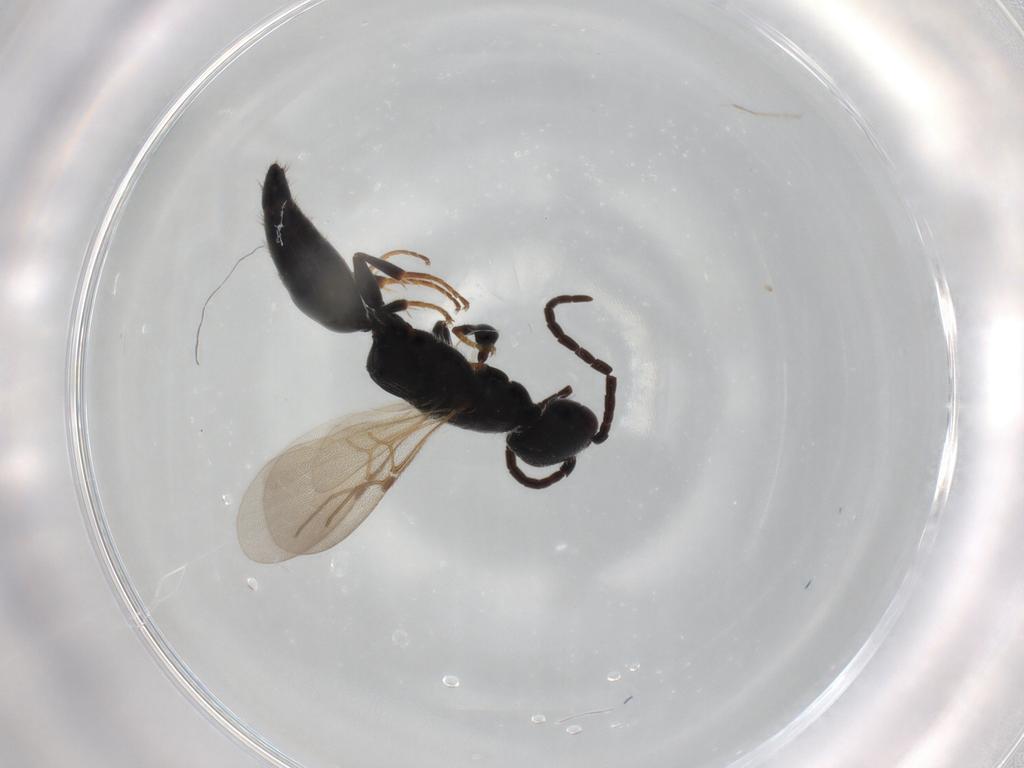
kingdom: Animalia
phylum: Arthropoda
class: Insecta
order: Hymenoptera
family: Bethylidae
